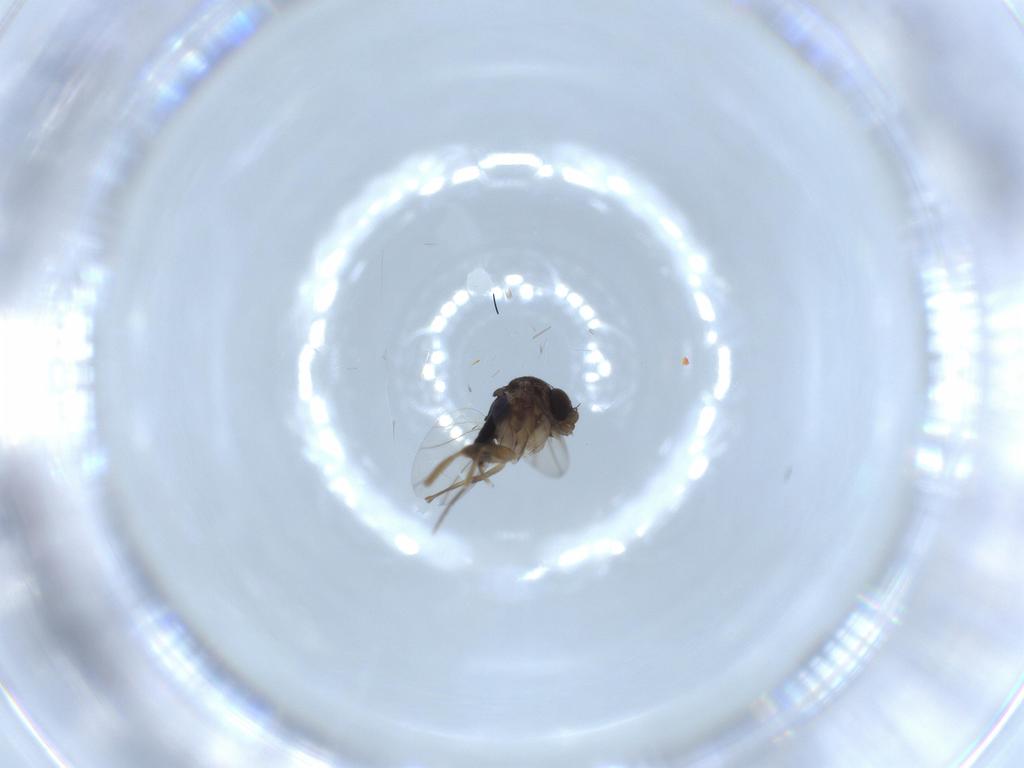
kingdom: Animalia
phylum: Arthropoda
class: Insecta
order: Diptera
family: Phoridae
